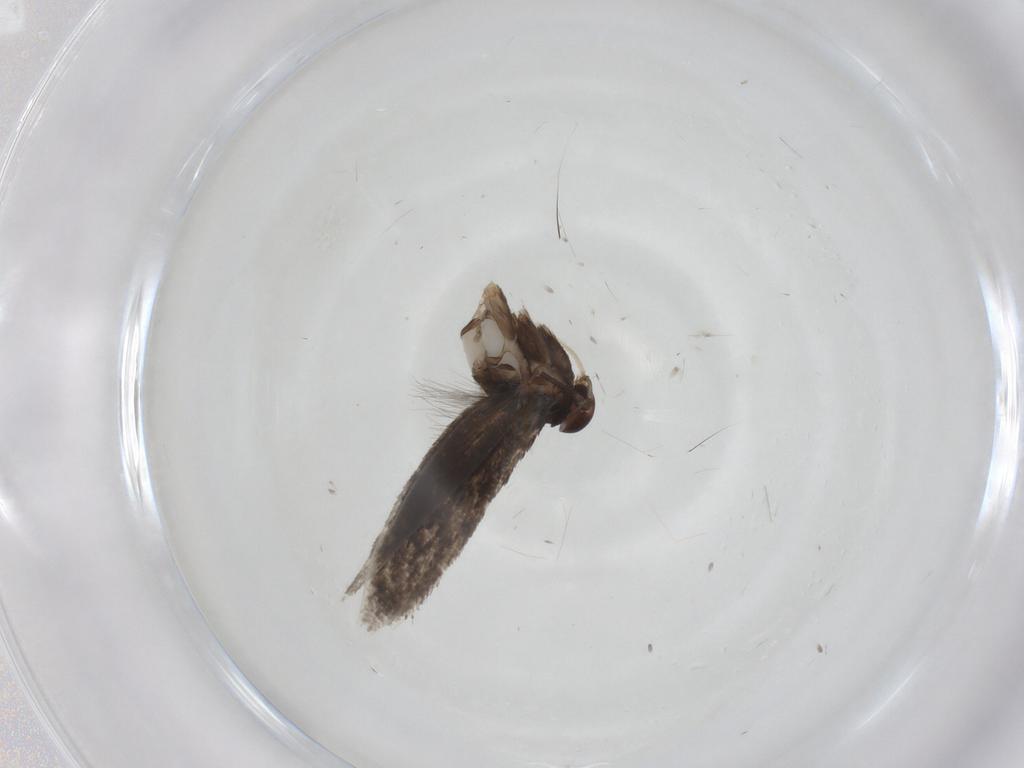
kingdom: Animalia
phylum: Arthropoda
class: Insecta
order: Lepidoptera
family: Elachistidae
